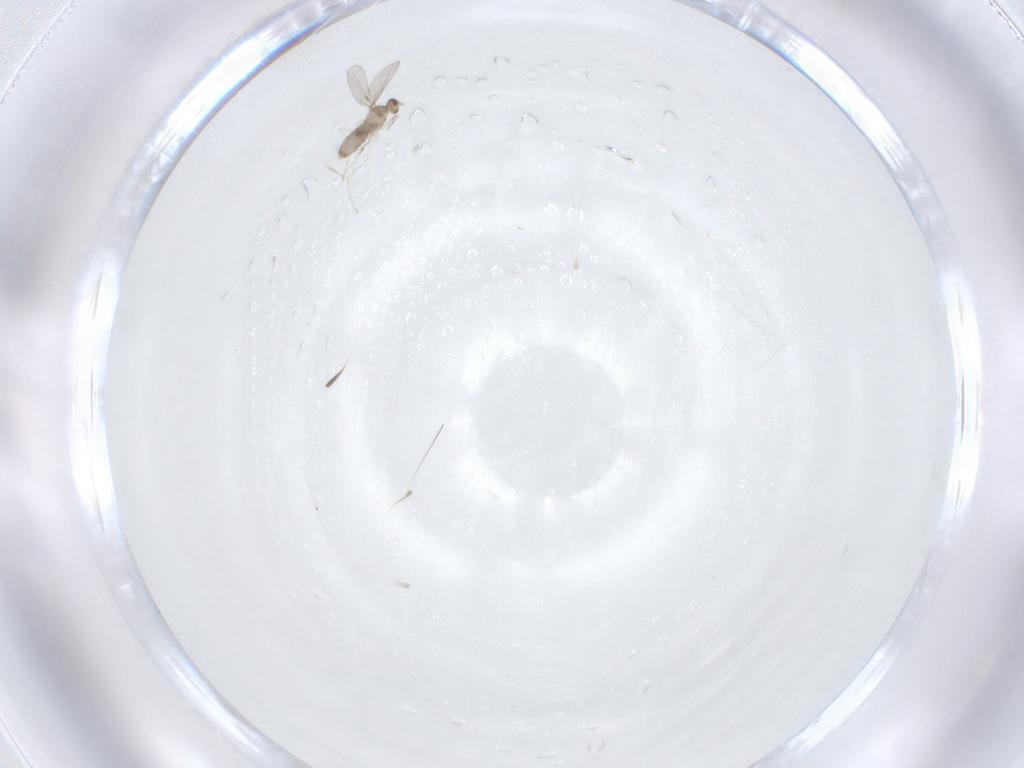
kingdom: Animalia
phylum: Arthropoda
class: Insecta
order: Diptera
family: Cecidomyiidae
